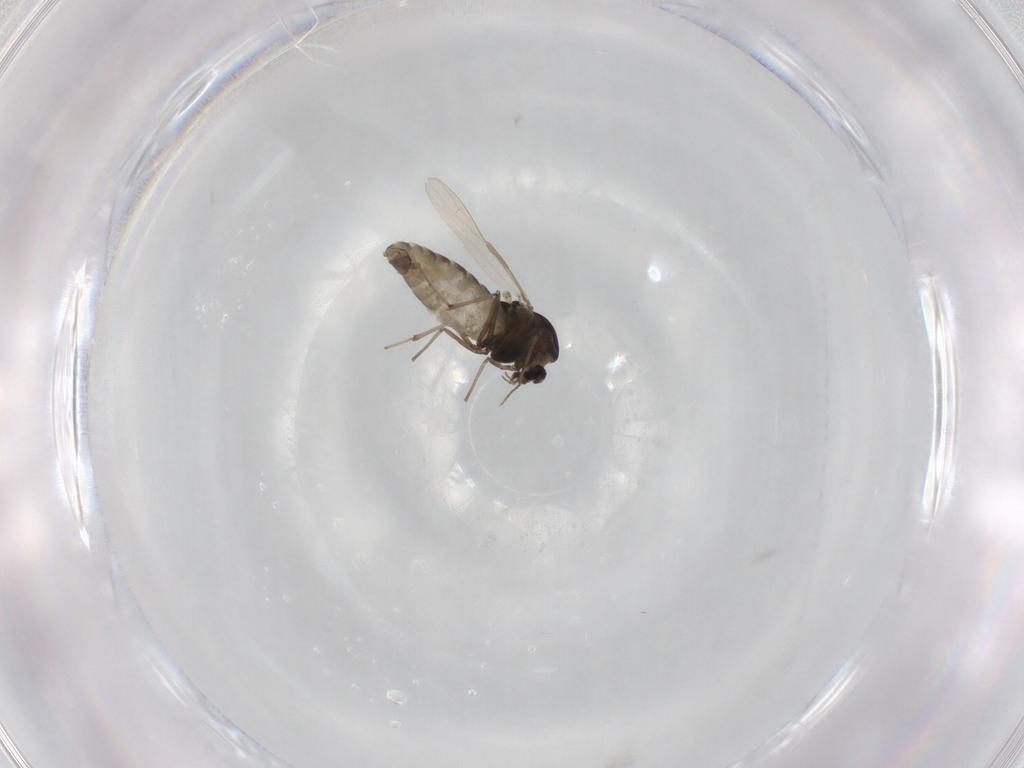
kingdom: Animalia
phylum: Arthropoda
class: Insecta
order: Diptera
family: Chironomidae
